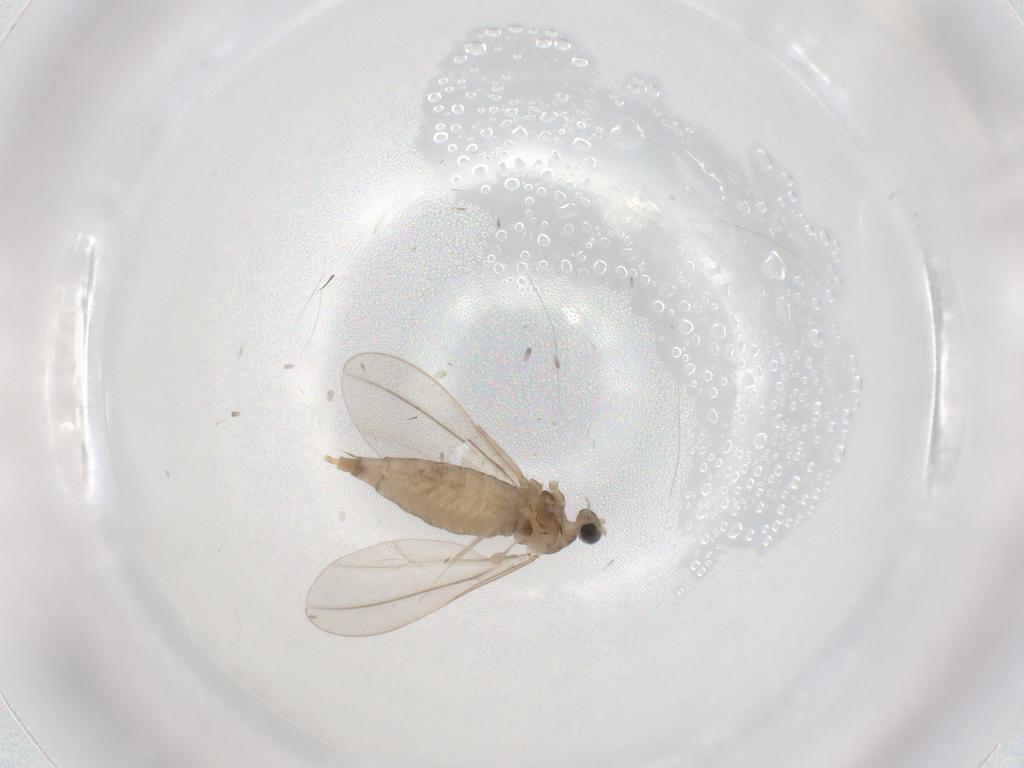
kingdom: Animalia
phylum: Arthropoda
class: Insecta
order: Diptera
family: Cecidomyiidae
